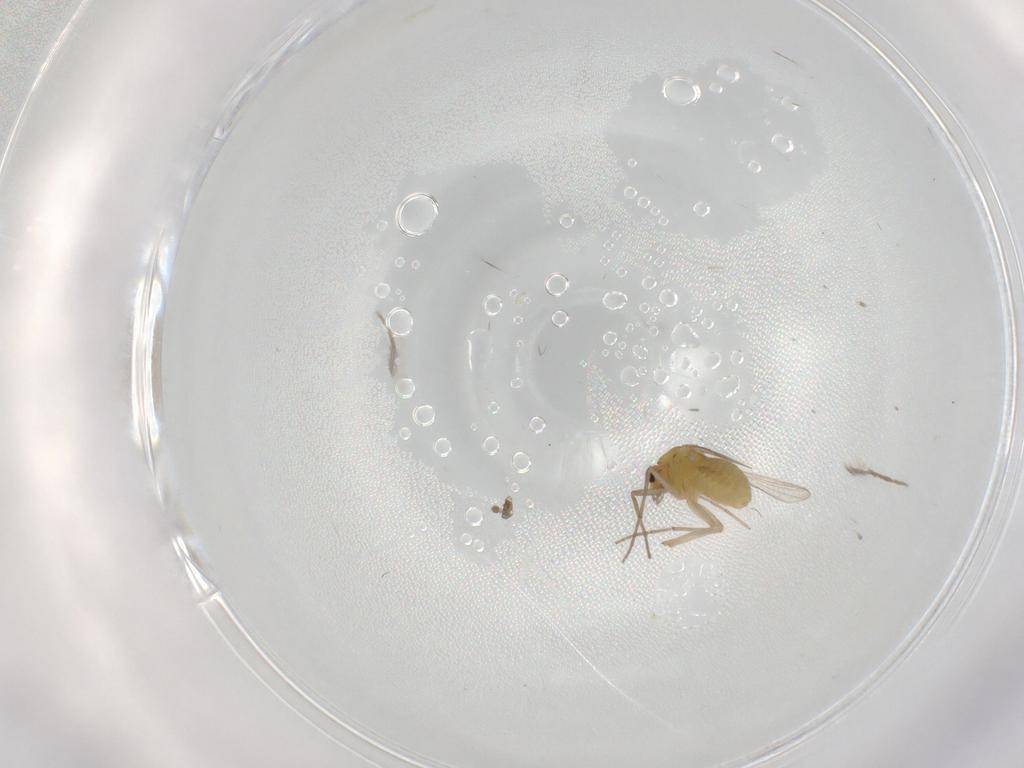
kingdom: Animalia
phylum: Arthropoda
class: Insecta
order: Diptera
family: Chironomidae
